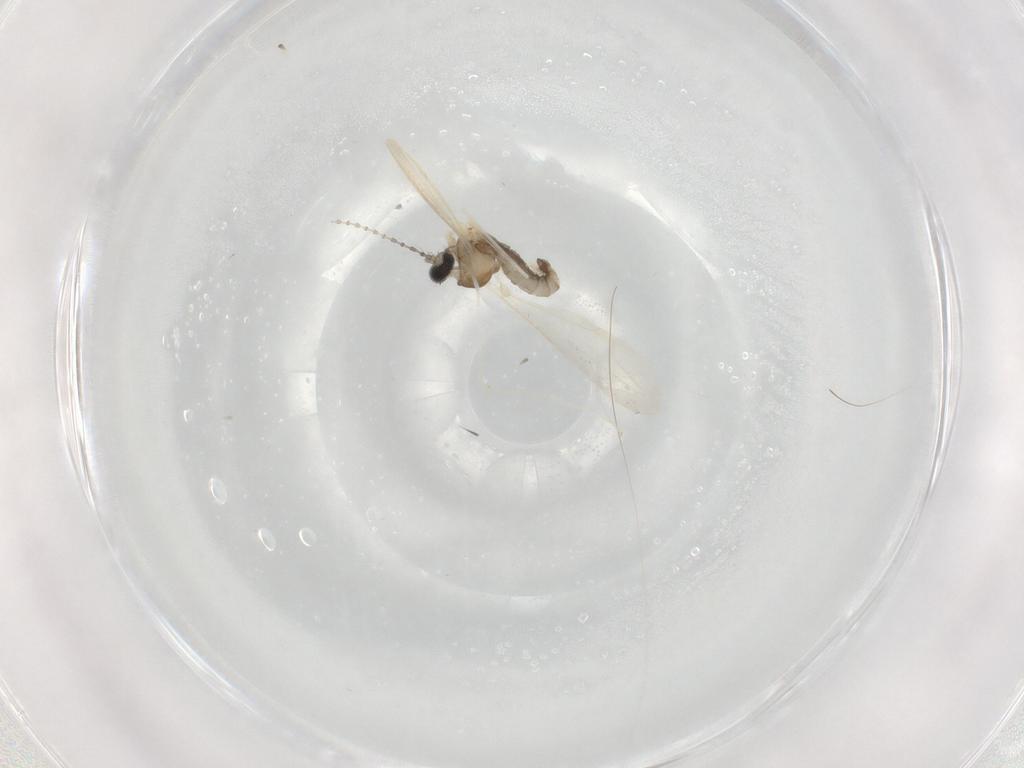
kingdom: Animalia
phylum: Arthropoda
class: Insecta
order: Diptera
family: Cecidomyiidae
